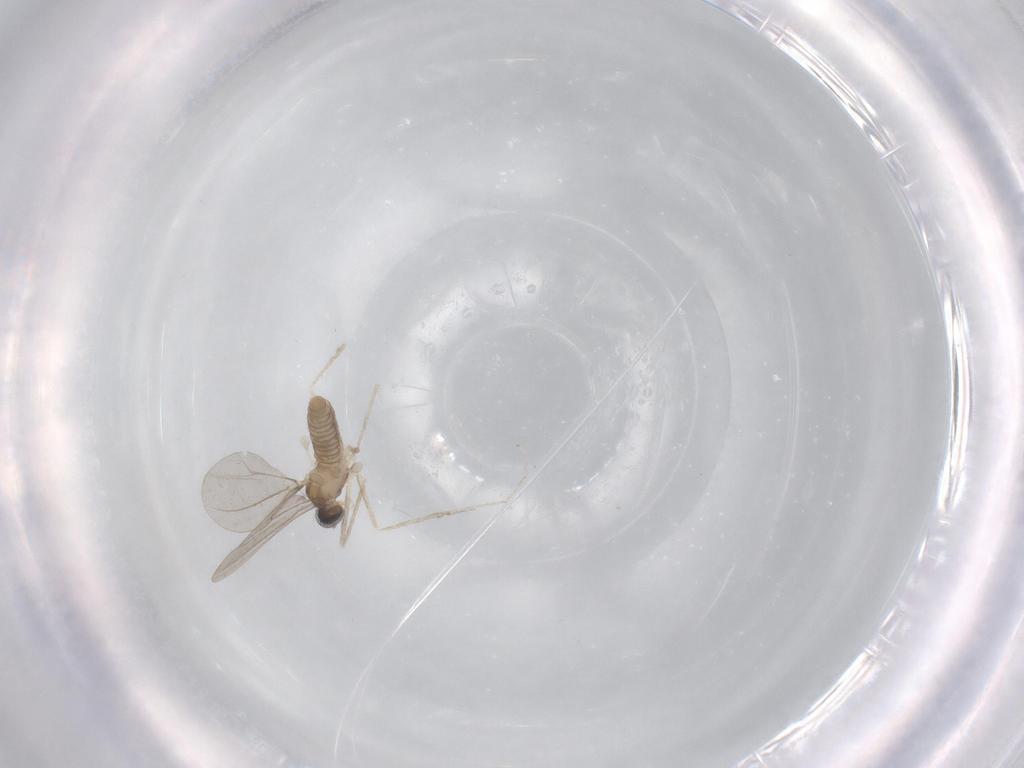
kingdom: Animalia
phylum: Arthropoda
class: Insecta
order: Diptera
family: Cecidomyiidae
